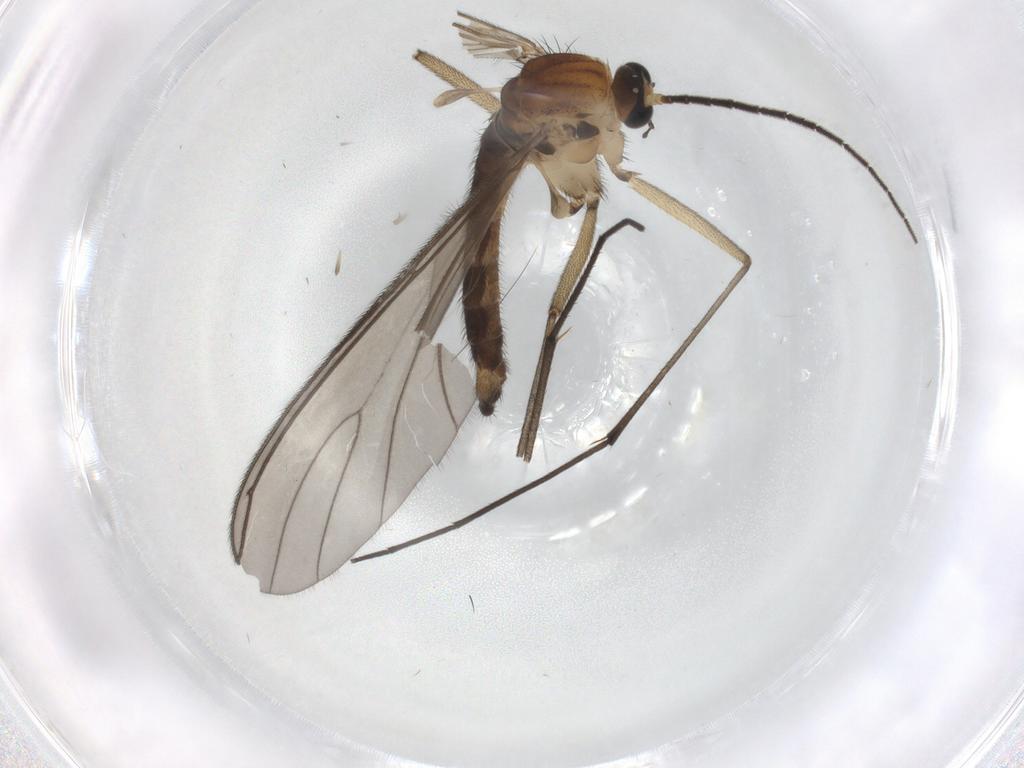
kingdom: Animalia
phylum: Arthropoda
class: Insecta
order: Diptera
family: Sciaridae
